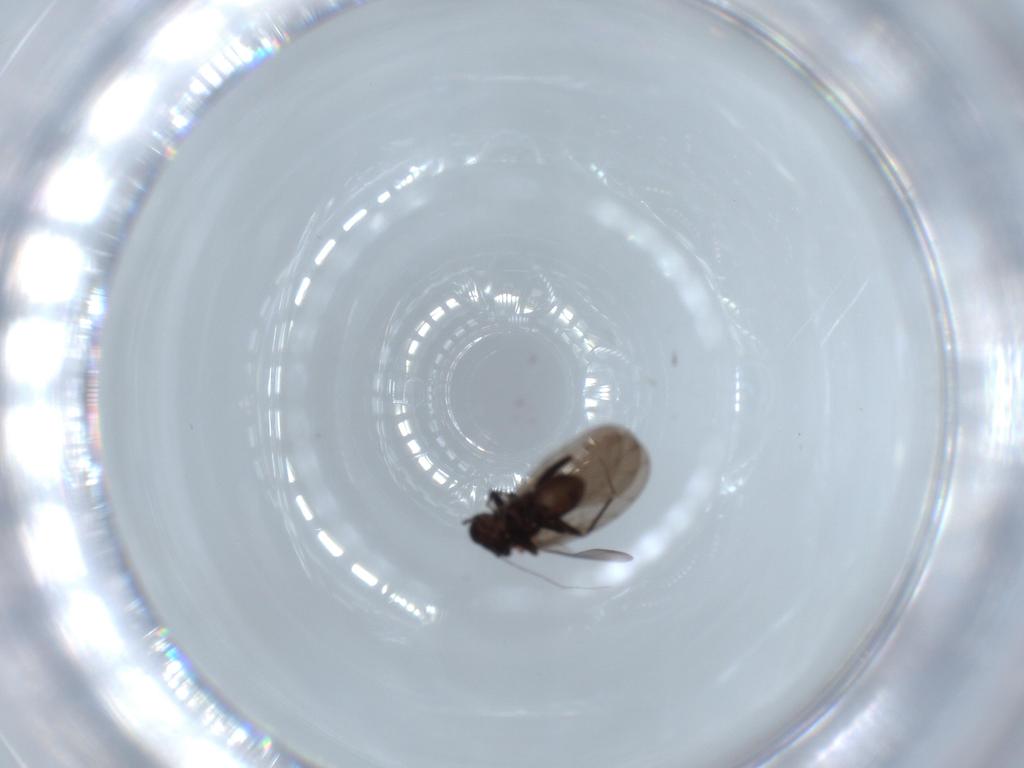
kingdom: Animalia
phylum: Arthropoda
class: Insecta
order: Psocodea
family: Lepidopsocidae
